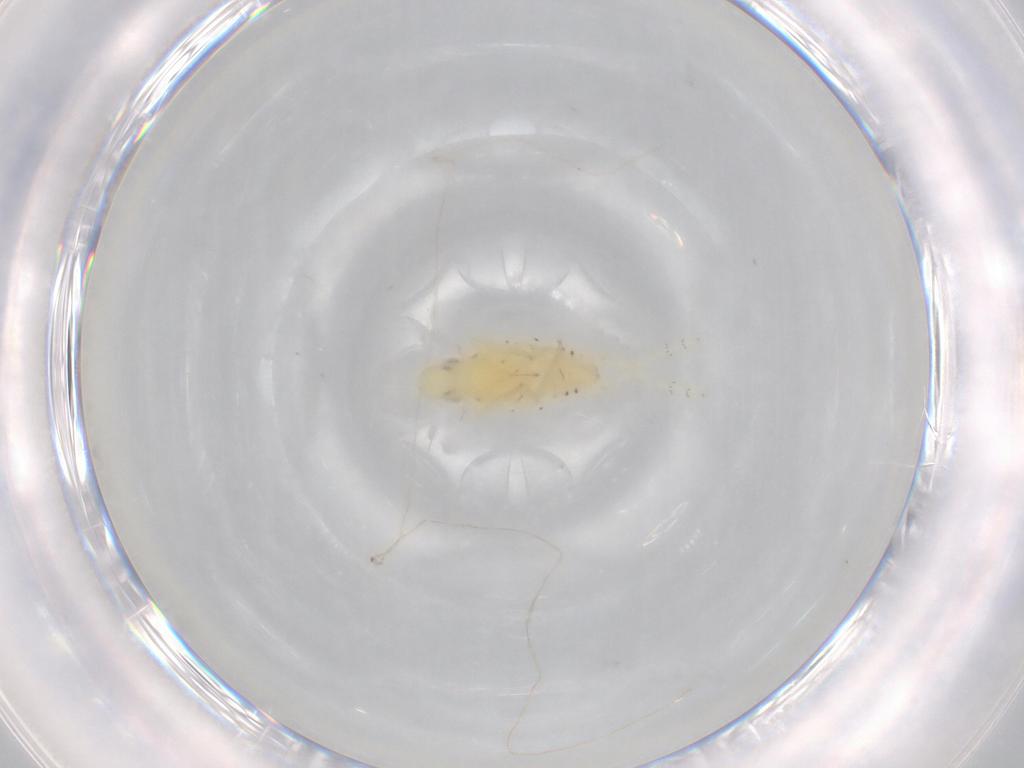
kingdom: Animalia
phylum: Arthropoda
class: Insecta
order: Hemiptera
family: Tropiduchidae
